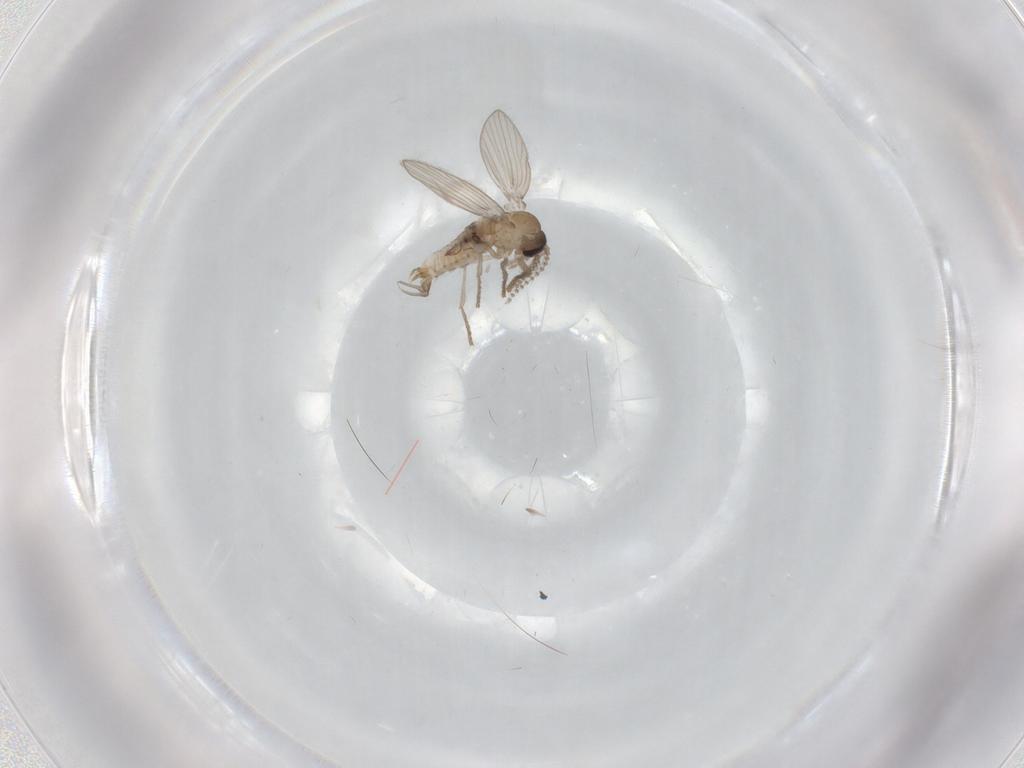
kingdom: Animalia
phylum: Arthropoda
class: Insecta
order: Diptera
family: Psychodidae
